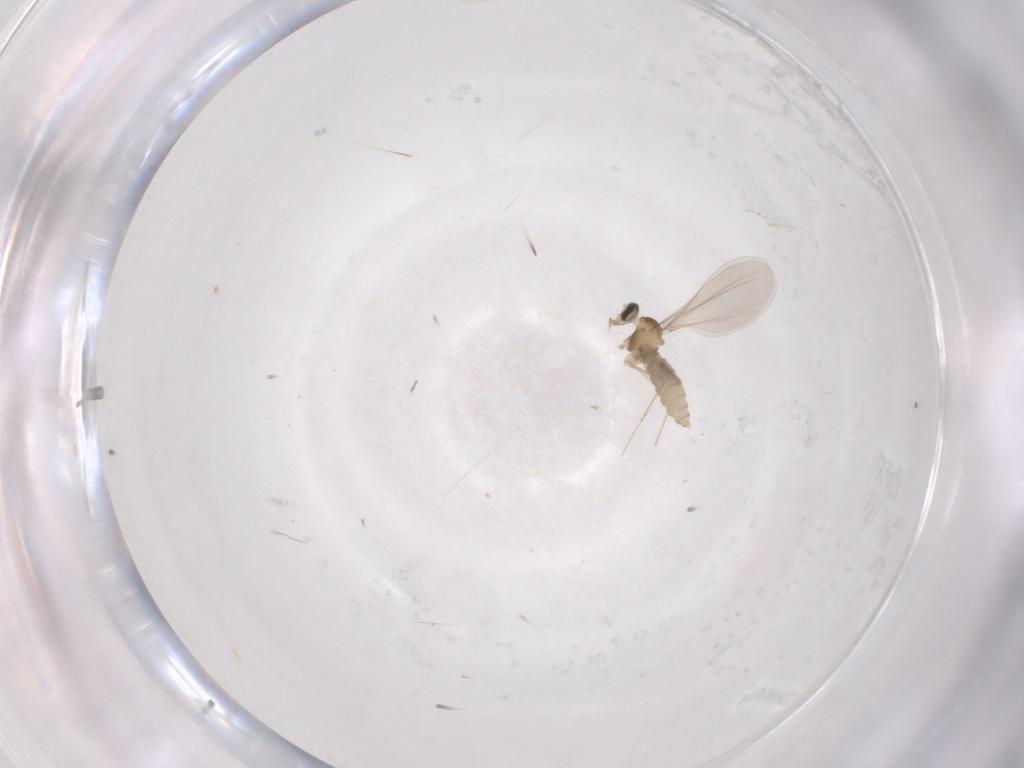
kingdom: Animalia
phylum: Arthropoda
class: Insecta
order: Diptera
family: Cecidomyiidae
